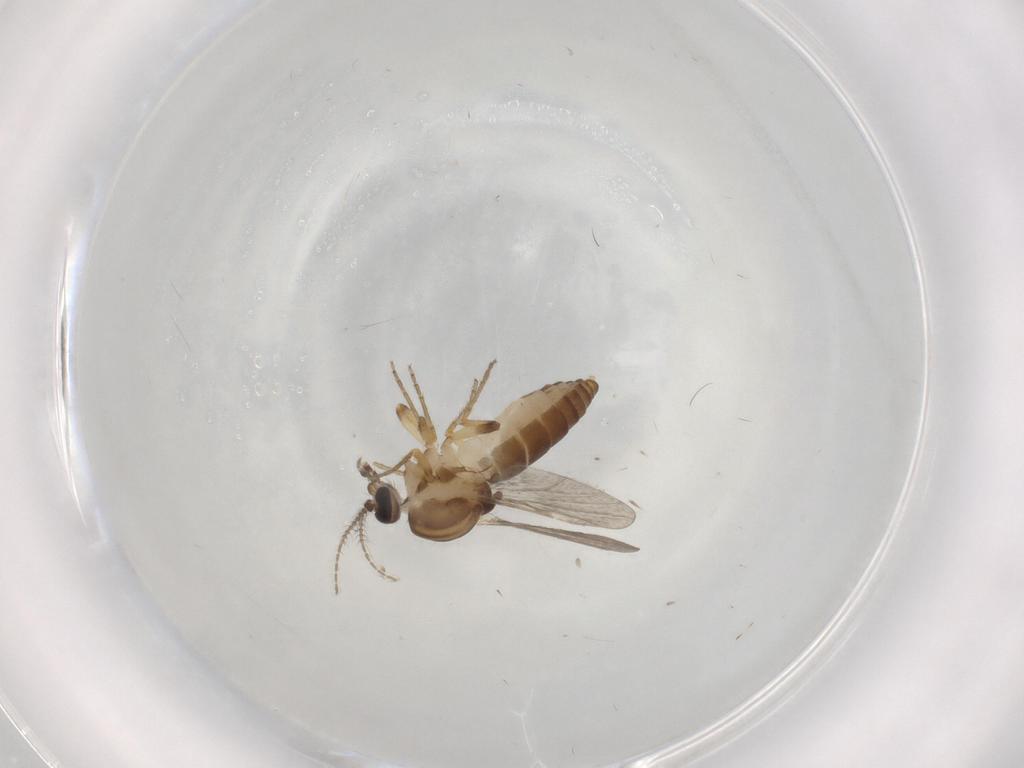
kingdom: Animalia
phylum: Arthropoda
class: Insecta
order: Diptera
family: Ceratopogonidae
